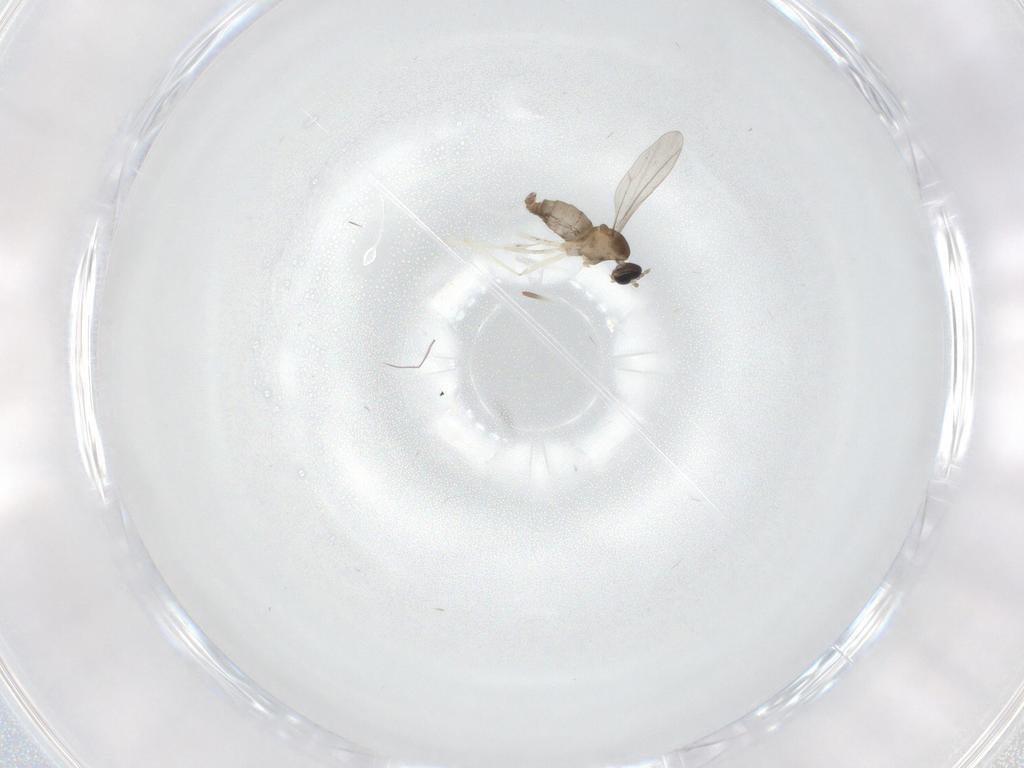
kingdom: Animalia
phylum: Arthropoda
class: Insecta
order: Diptera
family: Cecidomyiidae
